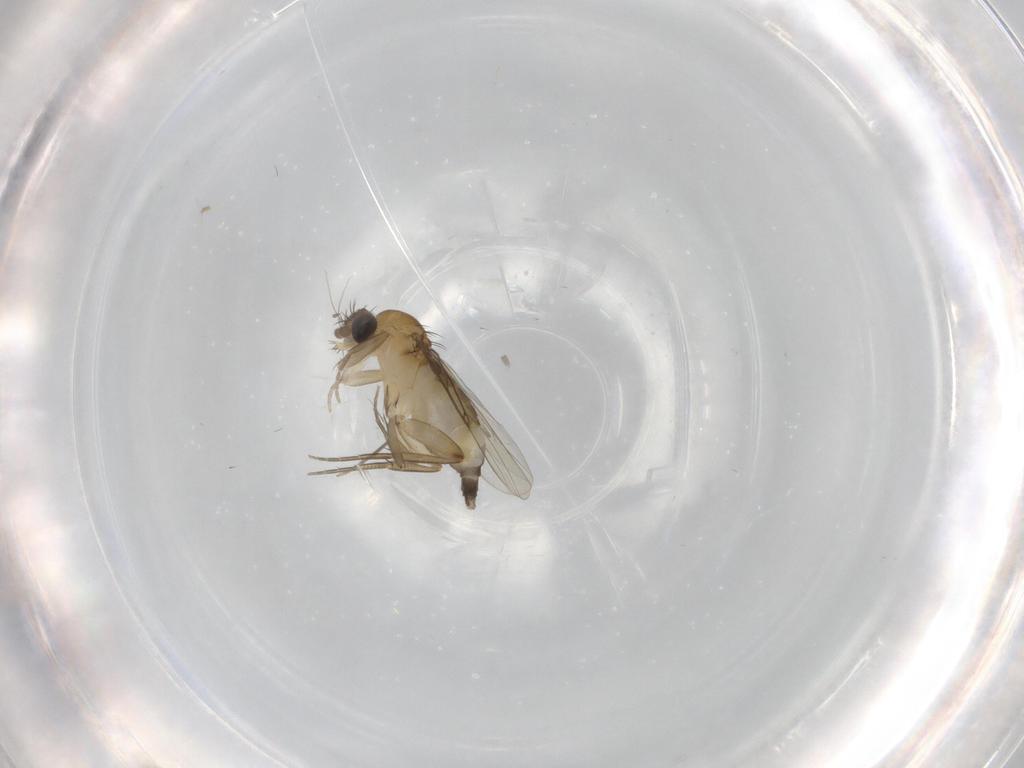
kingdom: Animalia
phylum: Arthropoda
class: Insecta
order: Diptera
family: Phoridae
